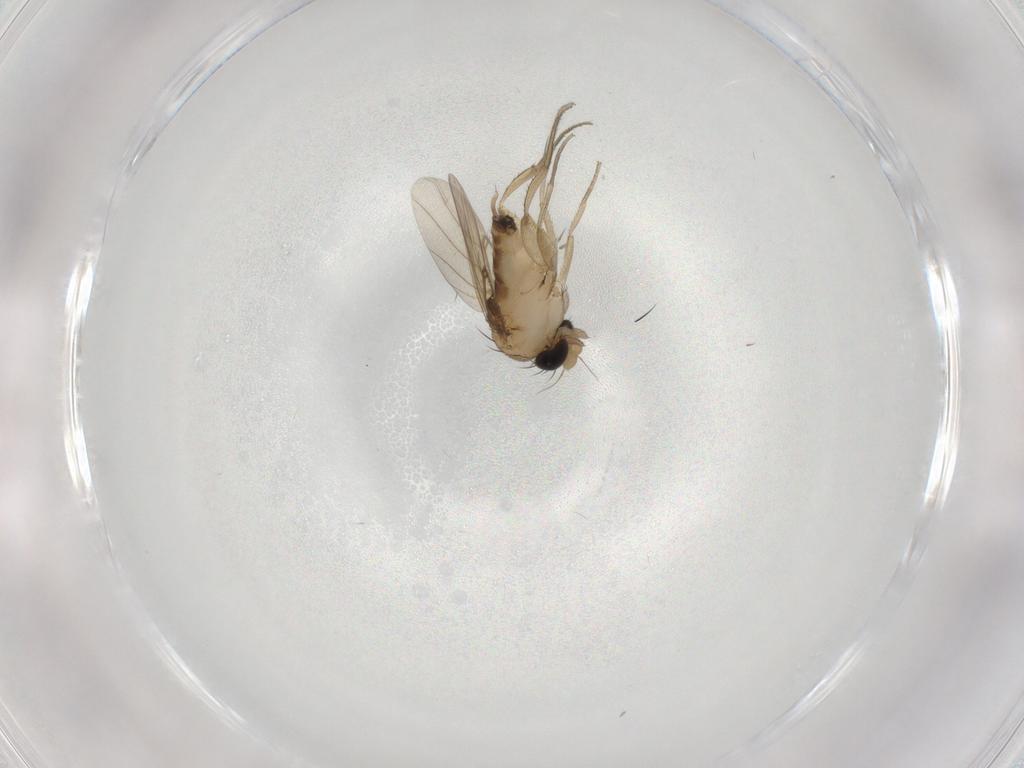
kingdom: Animalia
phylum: Arthropoda
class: Insecta
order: Diptera
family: Phoridae
